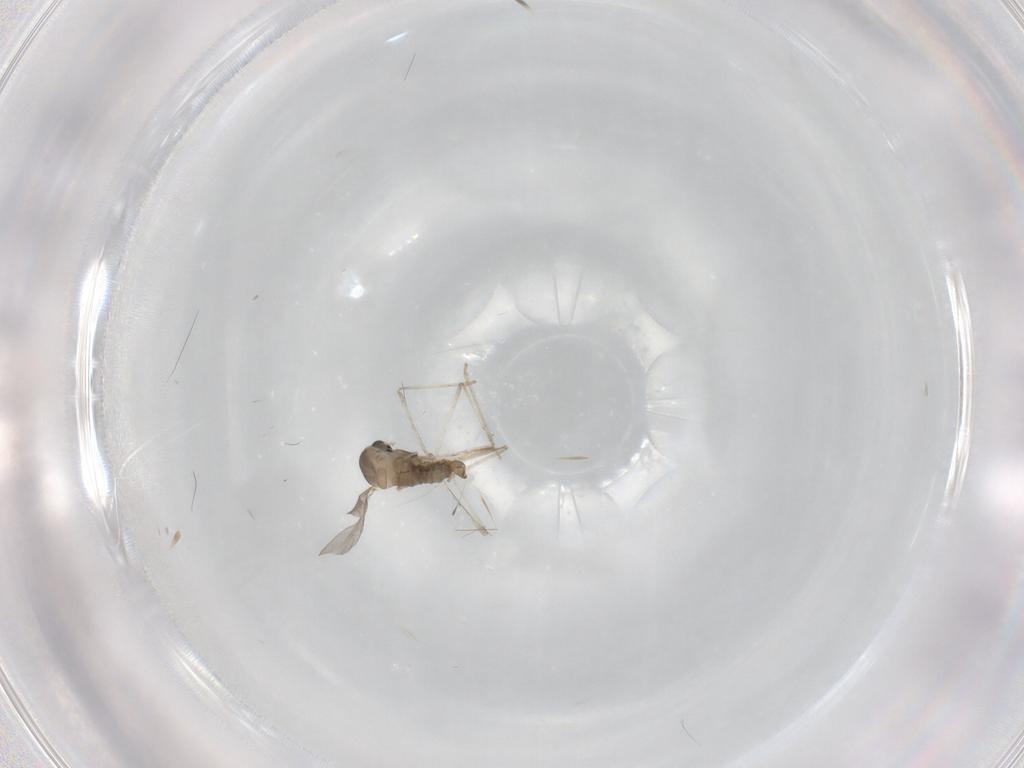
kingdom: Animalia
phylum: Arthropoda
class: Insecta
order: Diptera
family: Cecidomyiidae
